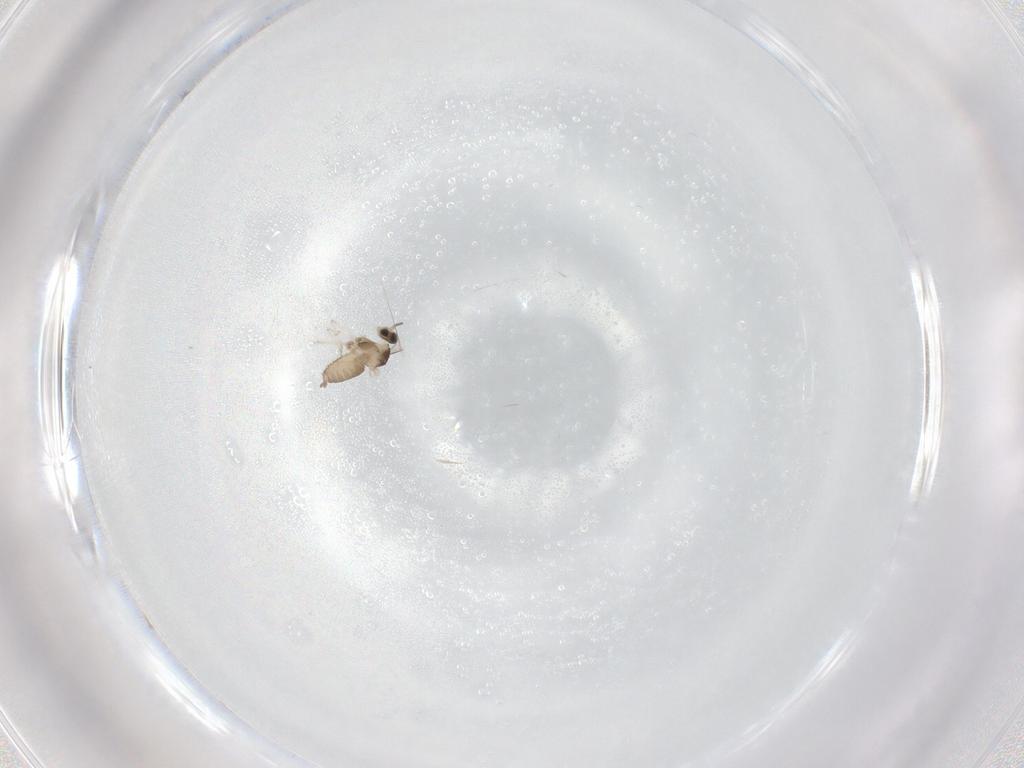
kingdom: Animalia
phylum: Arthropoda
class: Insecta
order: Diptera
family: Cecidomyiidae
